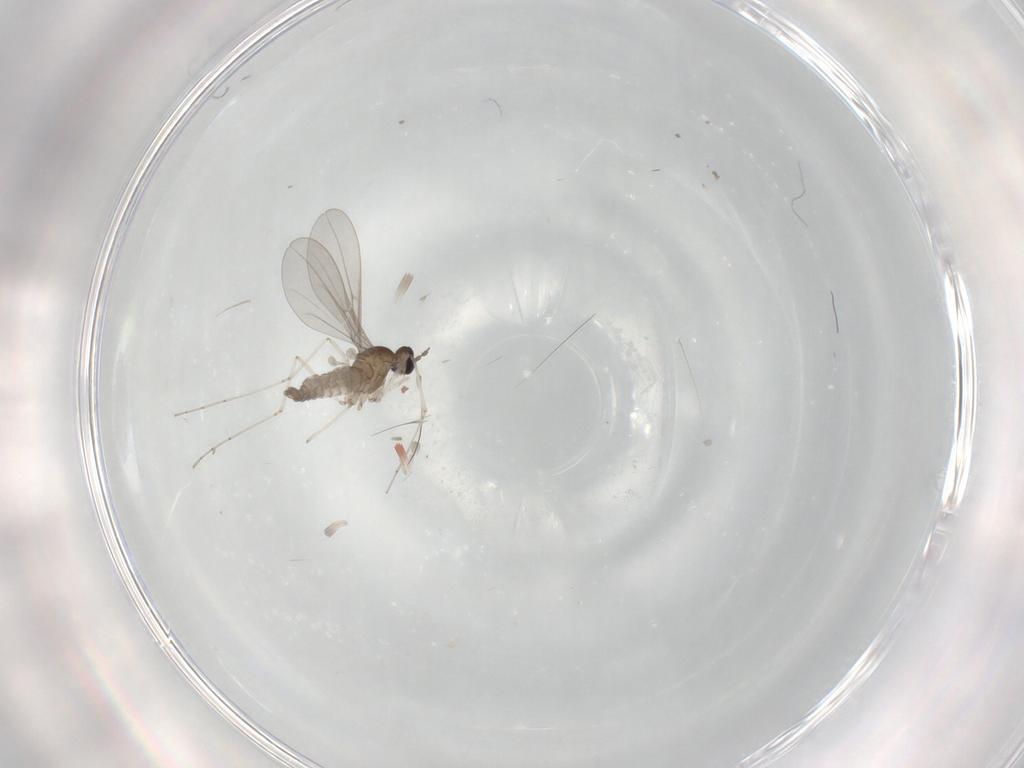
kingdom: Animalia
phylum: Arthropoda
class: Insecta
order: Diptera
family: Cecidomyiidae
